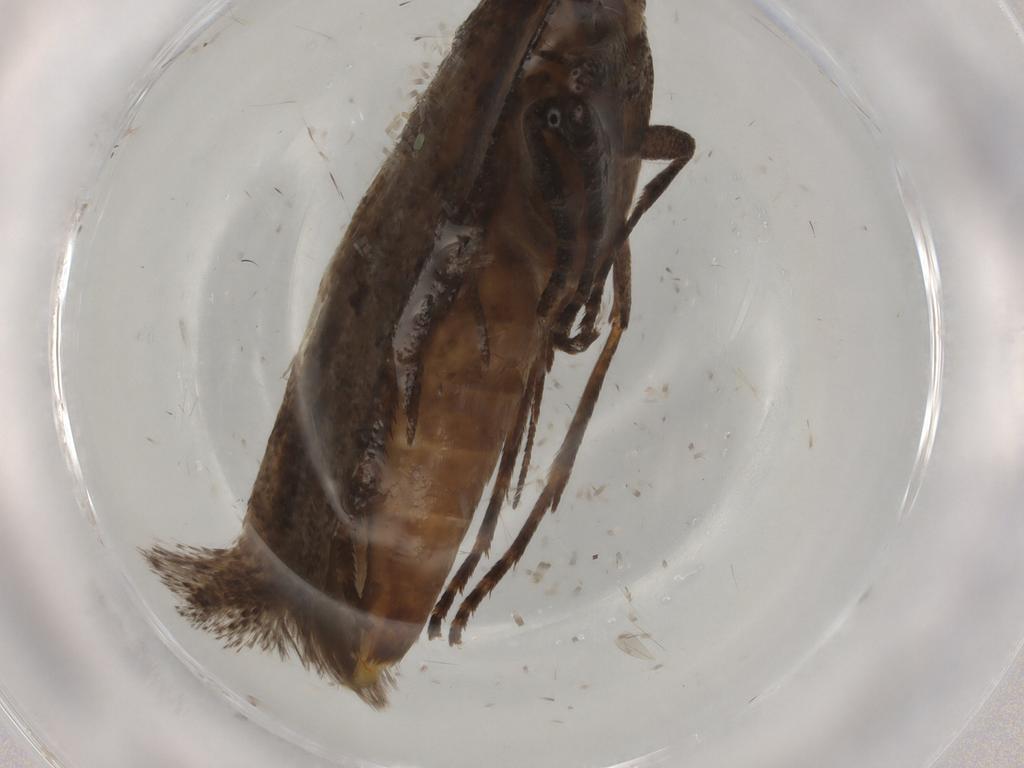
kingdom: Animalia
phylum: Arthropoda
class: Insecta
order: Lepidoptera
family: Gelechiidae
